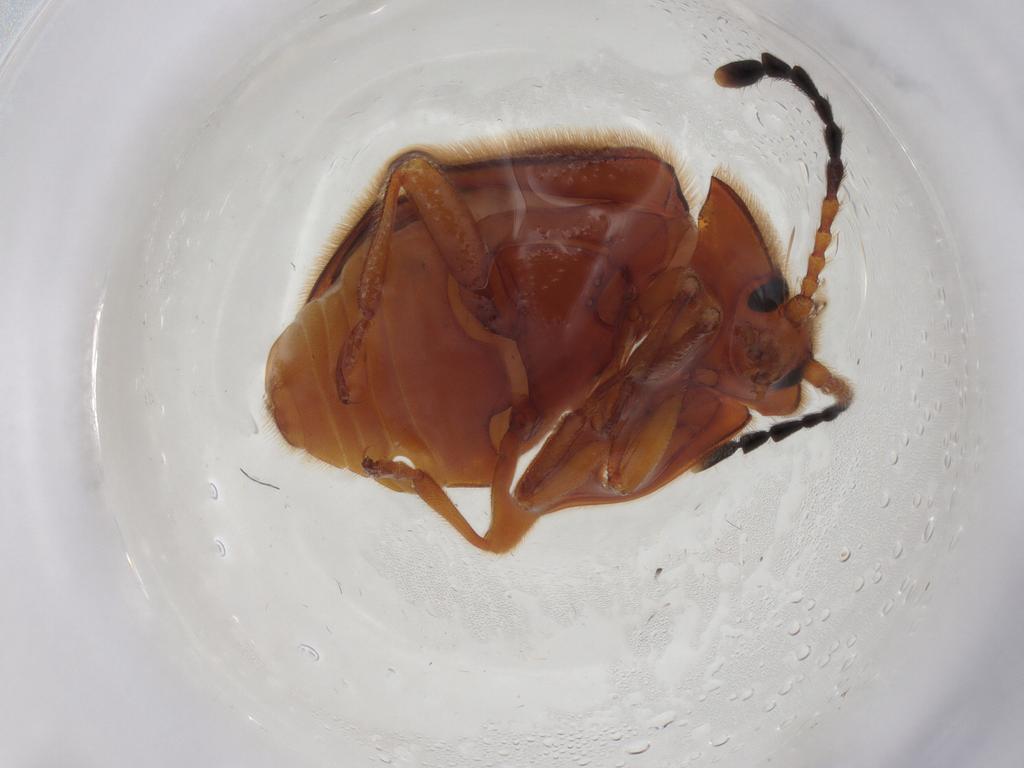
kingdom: Animalia
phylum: Arthropoda
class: Insecta
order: Coleoptera
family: Endomychidae
